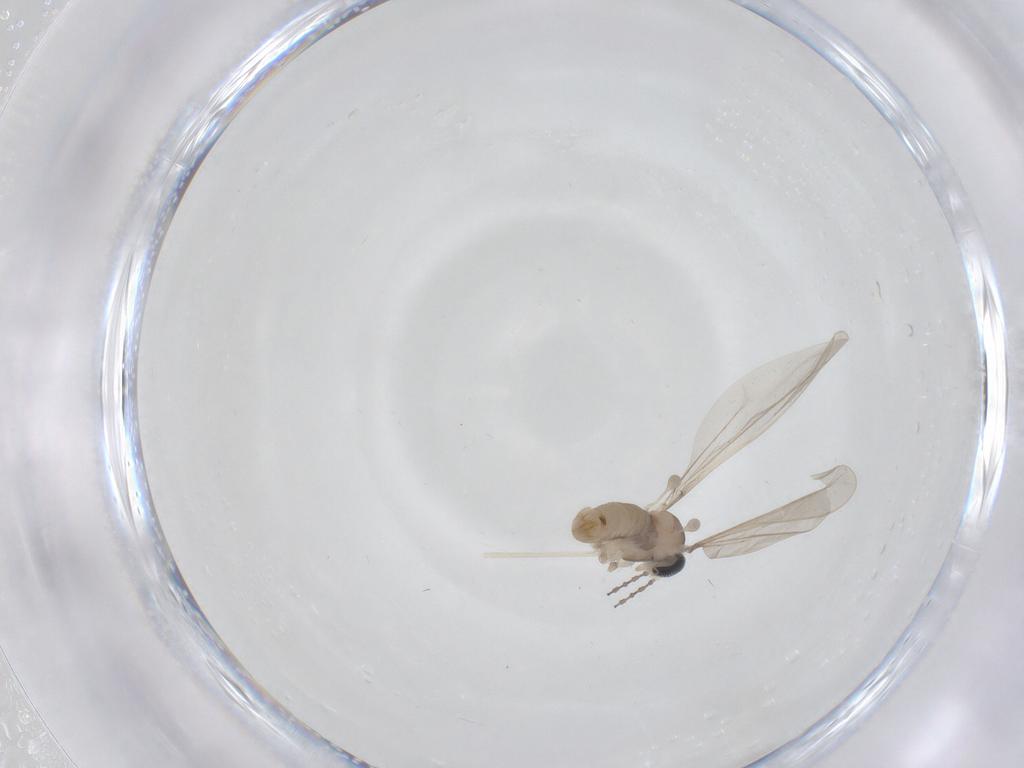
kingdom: Animalia
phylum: Arthropoda
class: Insecta
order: Diptera
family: Cecidomyiidae
